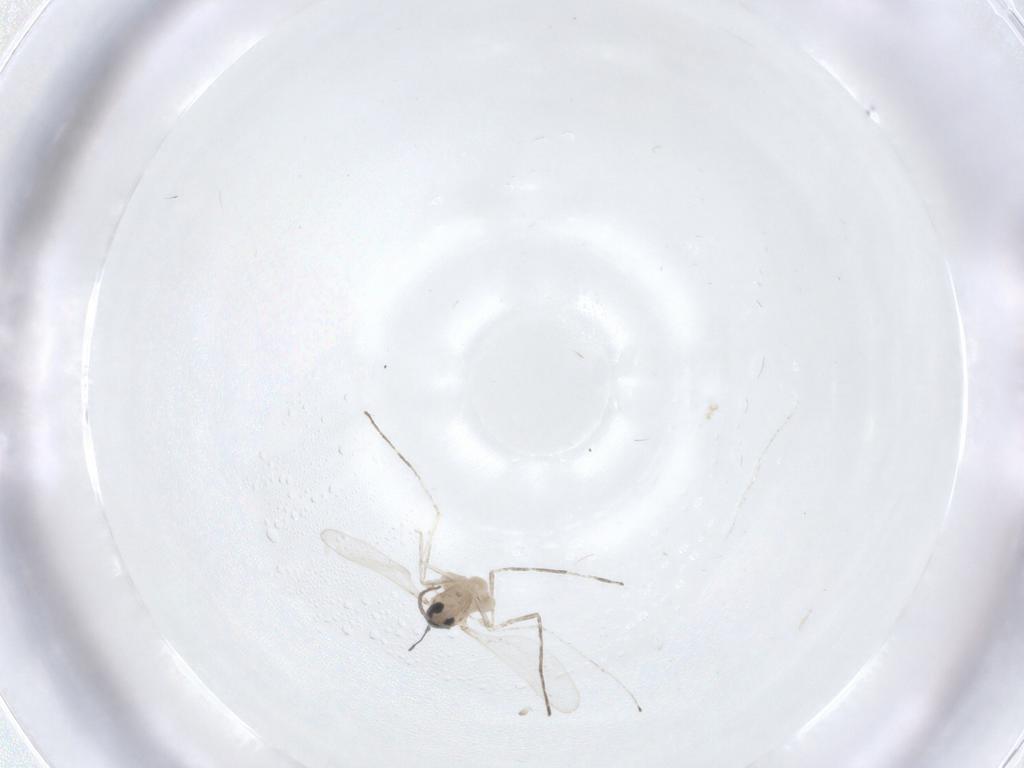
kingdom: Animalia
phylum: Arthropoda
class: Insecta
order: Diptera
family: Cecidomyiidae
